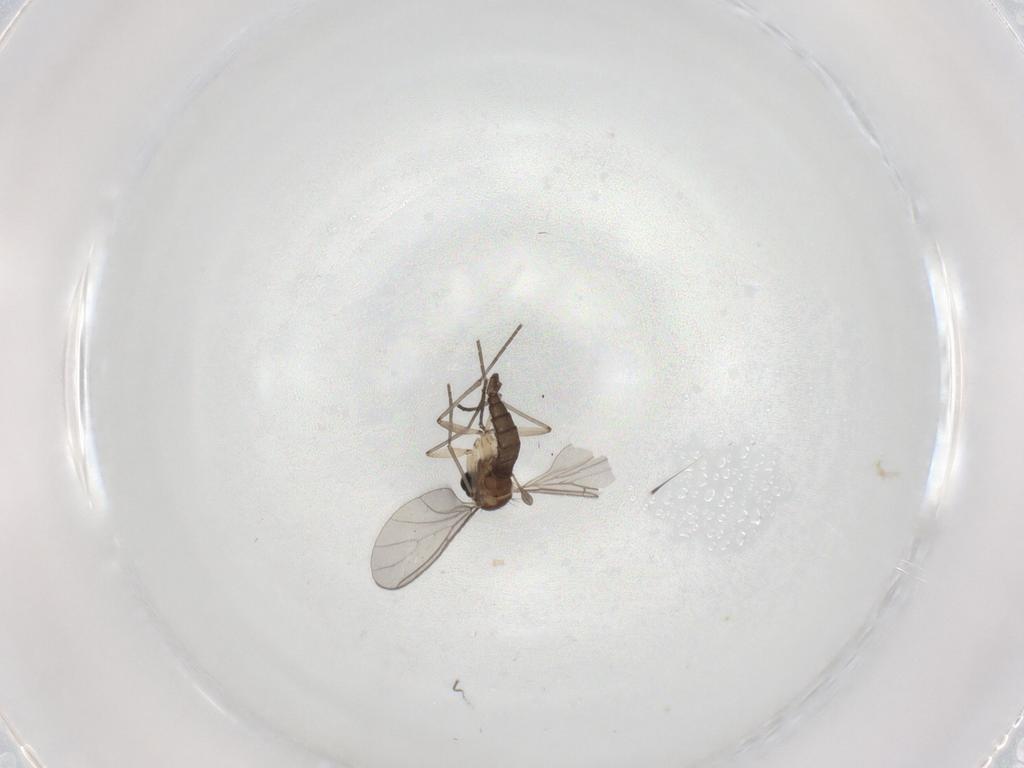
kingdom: Animalia
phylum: Arthropoda
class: Insecta
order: Diptera
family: Sciaridae
